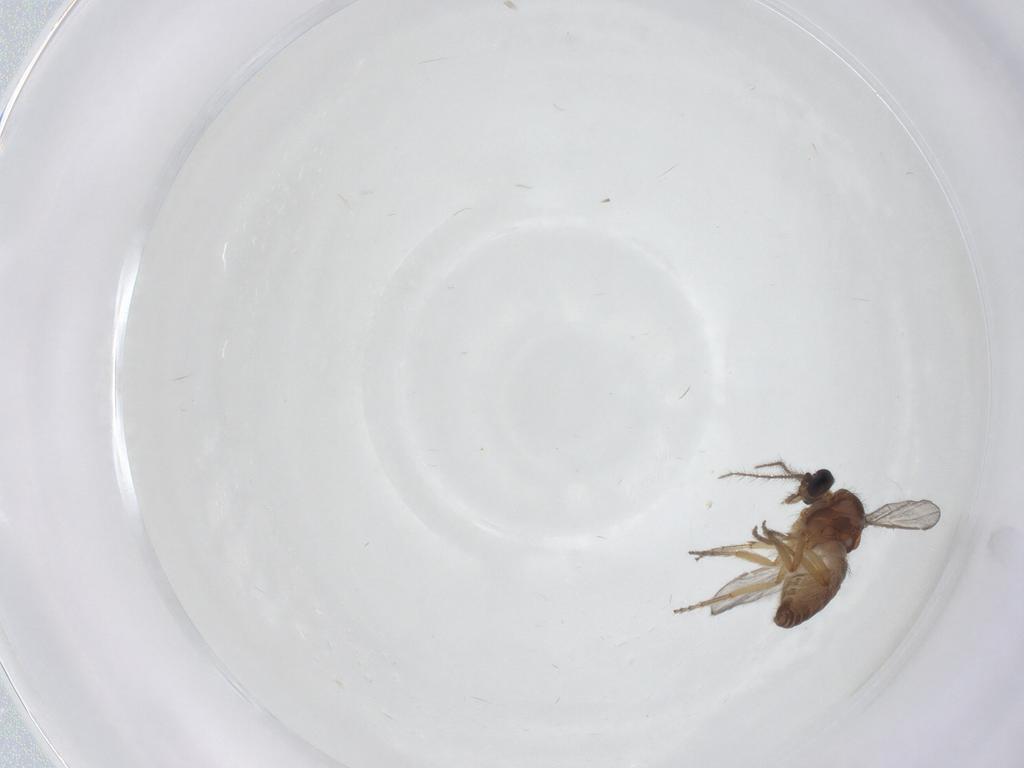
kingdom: Animalia
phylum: Arthropoda
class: Insecta
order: Diptera
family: Ceratopogonidae
